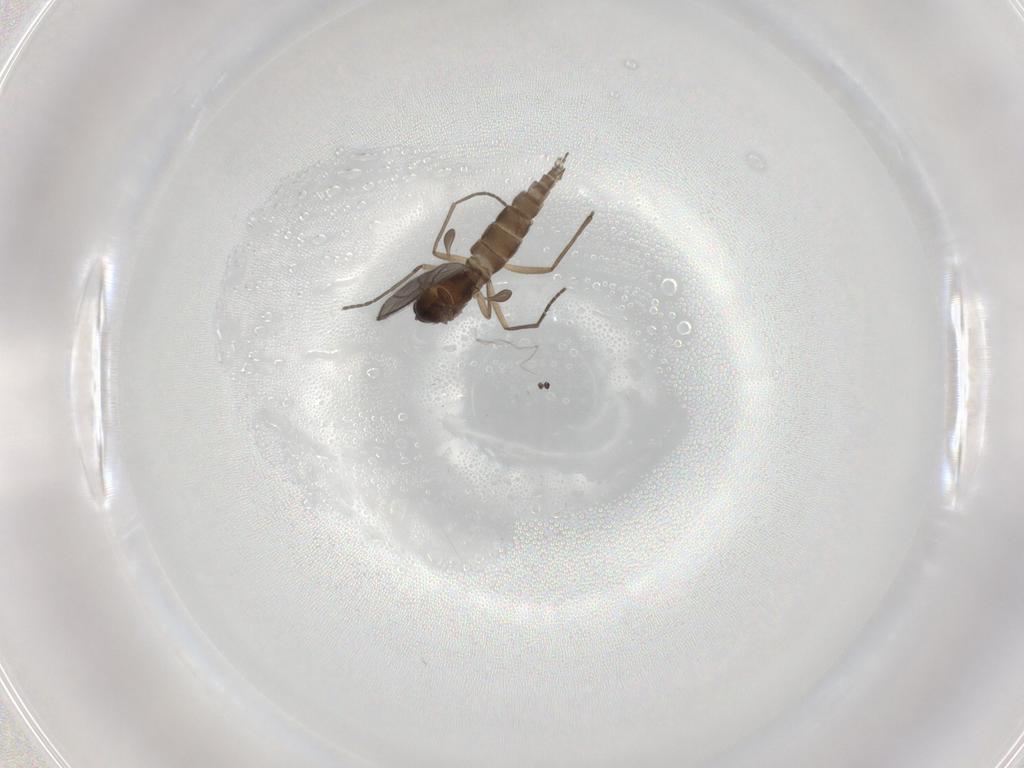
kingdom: Animalia
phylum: Arthropoda
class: Insecta
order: Diptera
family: Sciaridae
